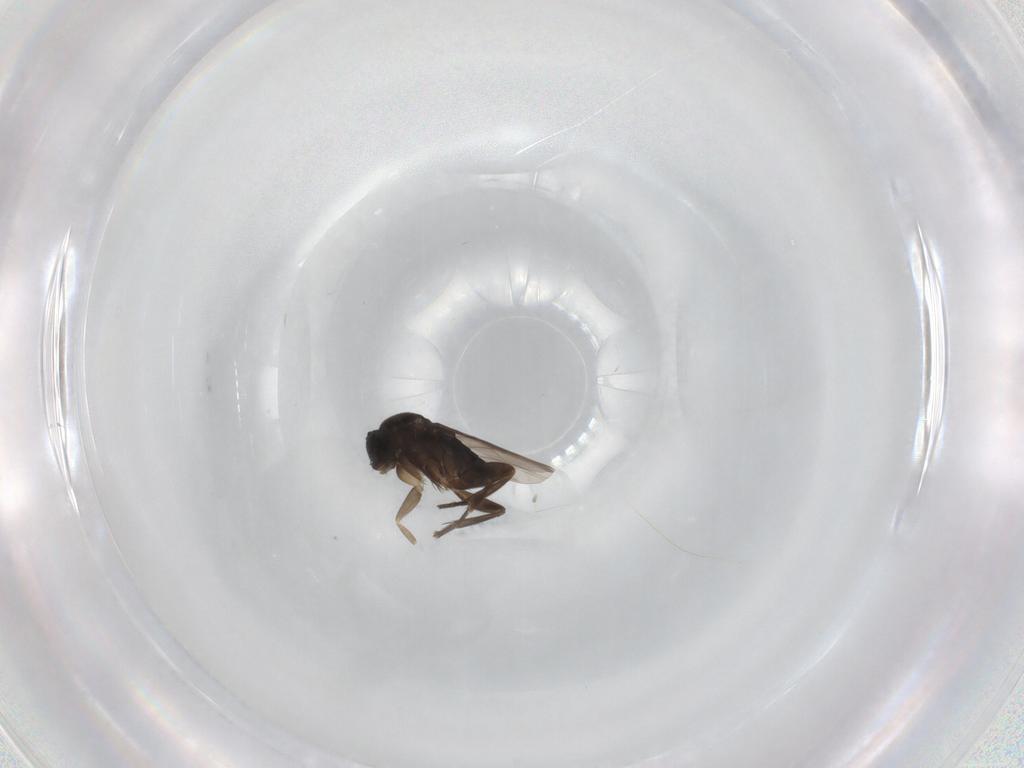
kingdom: Animalia
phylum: Arthropoda
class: Insecta
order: Diptera
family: Phoridae
